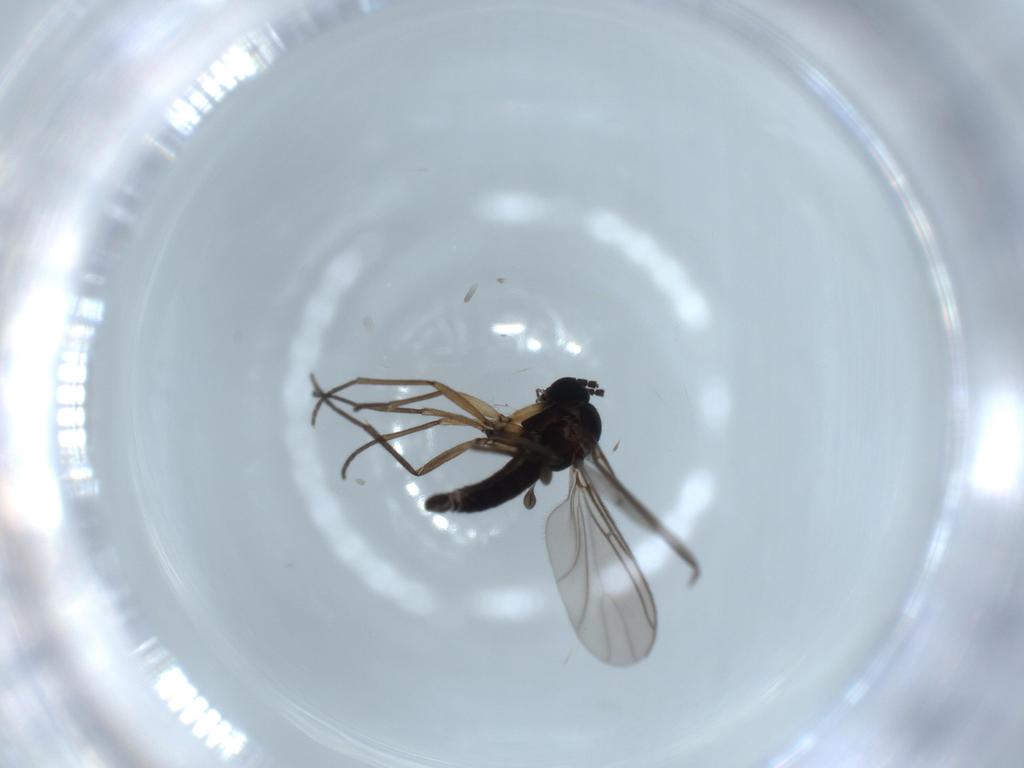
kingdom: Animalia
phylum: Arthropoda
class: Insecta
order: Diptera
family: Sciaridae
